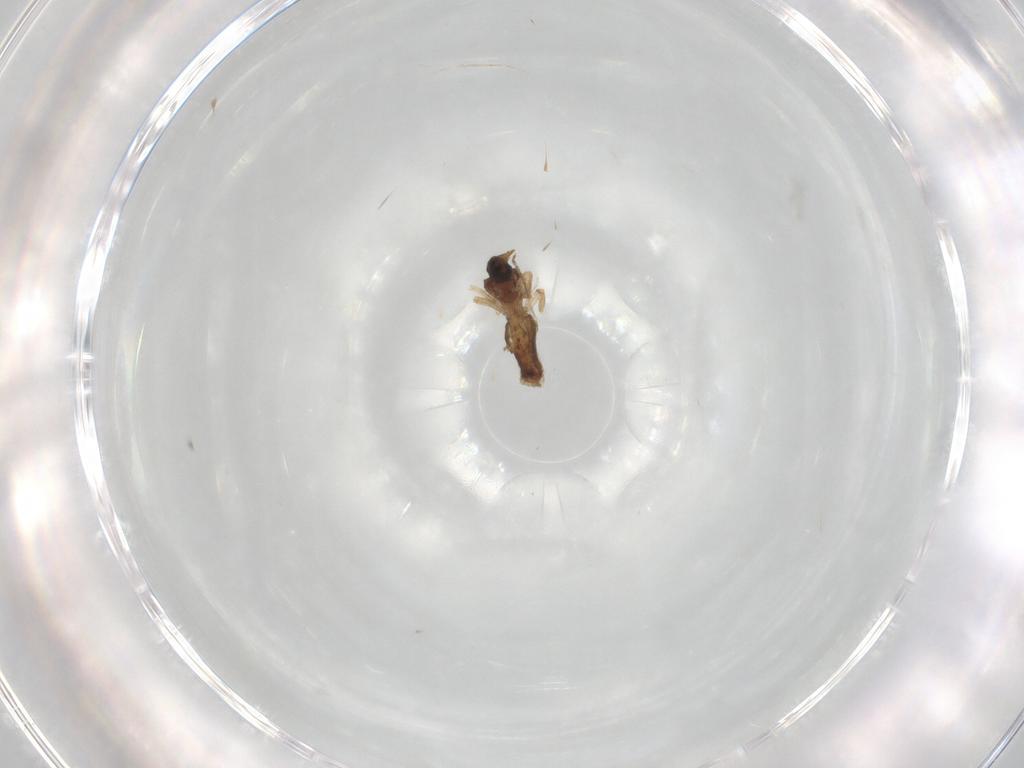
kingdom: Animalia
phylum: Arthropoda
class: Insecta
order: Diptera
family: Ceratopogonidae
